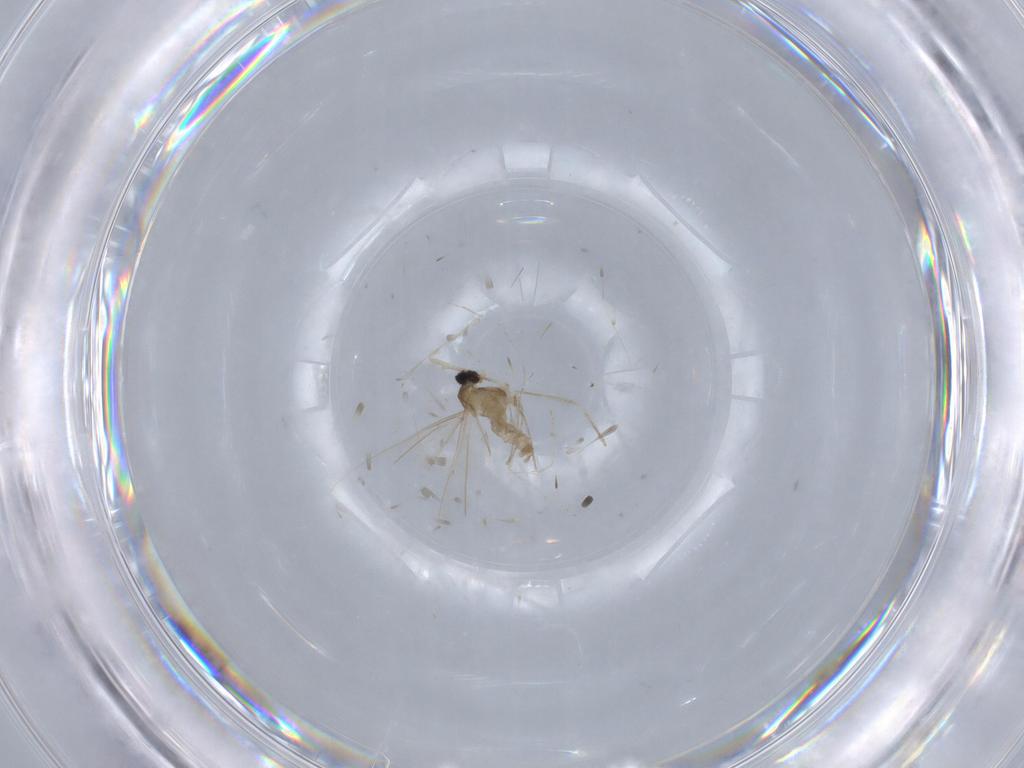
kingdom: Animalia
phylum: Arthropoda
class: Insecta
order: Diptera
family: Cecidomyiidae
